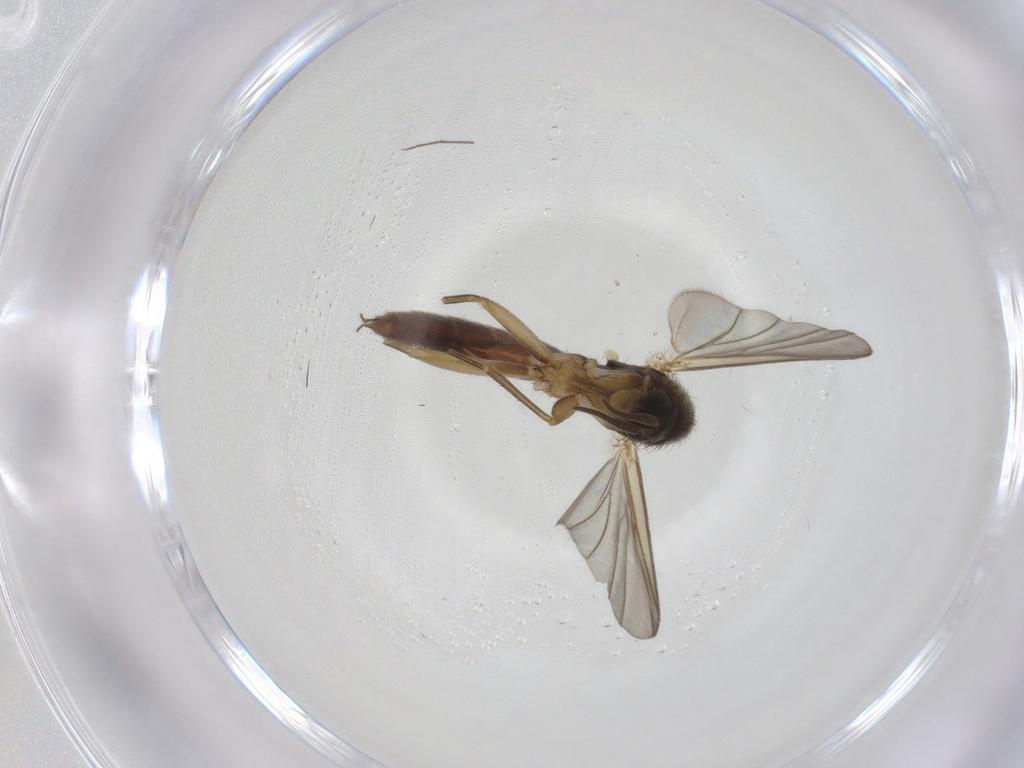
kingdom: Animalia
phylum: Arthropoda
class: Insecta
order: Diptera
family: Mycetophilidae
